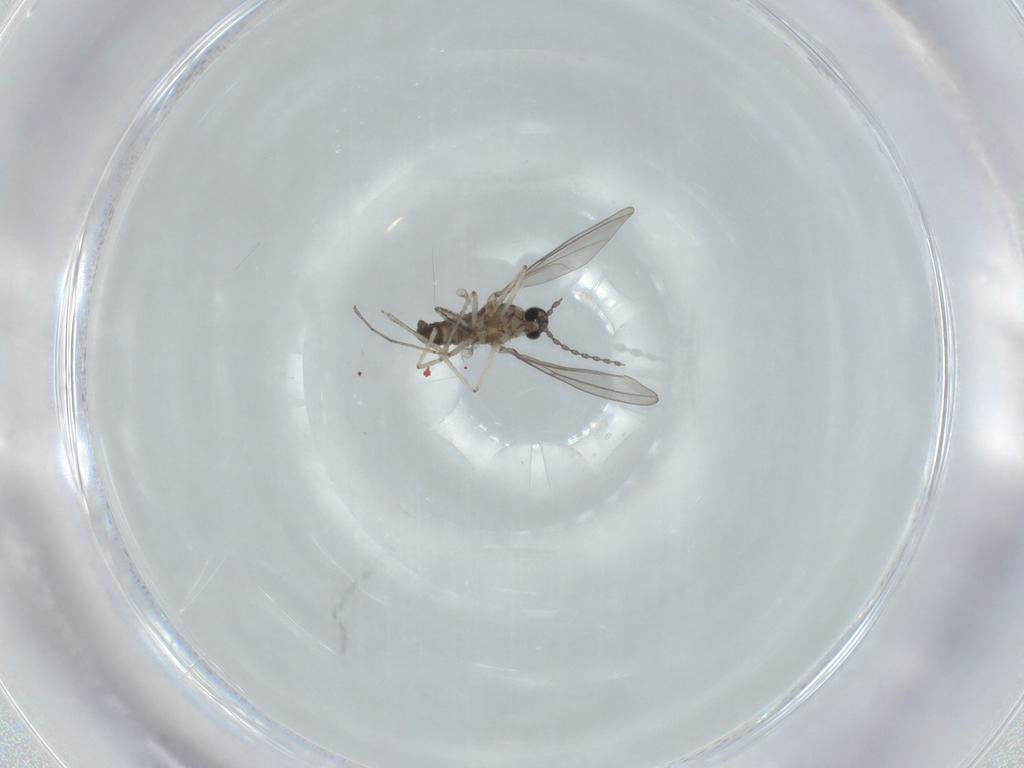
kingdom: Animalia
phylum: Arthropoda
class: Insecta
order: Diptera
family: Cecidomyiidae
